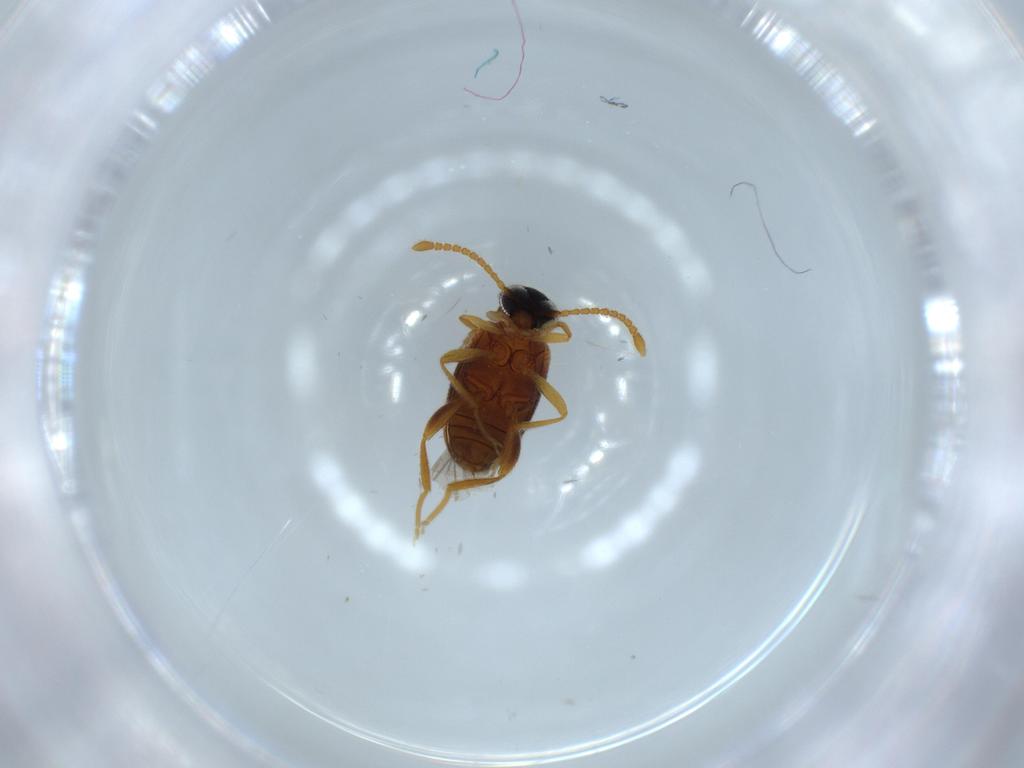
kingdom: Animalia
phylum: Arthropoda
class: Insecta
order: Coleoptera
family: Aderidae
